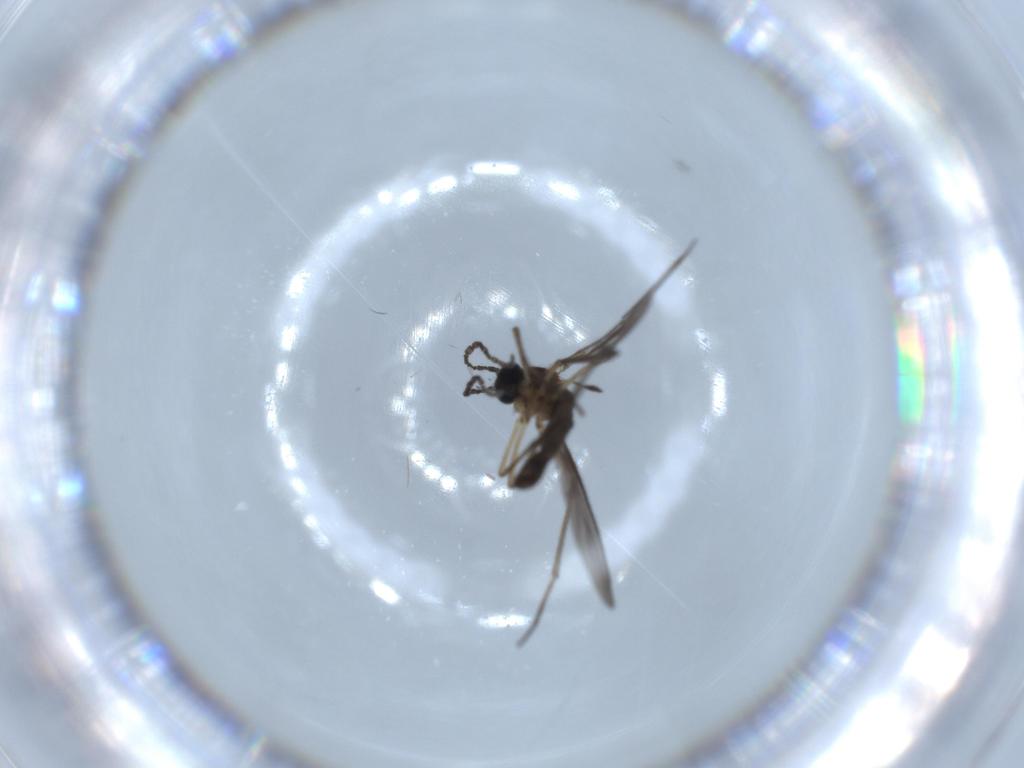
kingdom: Animalia
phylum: Arthropoda
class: Insecta
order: Diptera
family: Sciaridae
